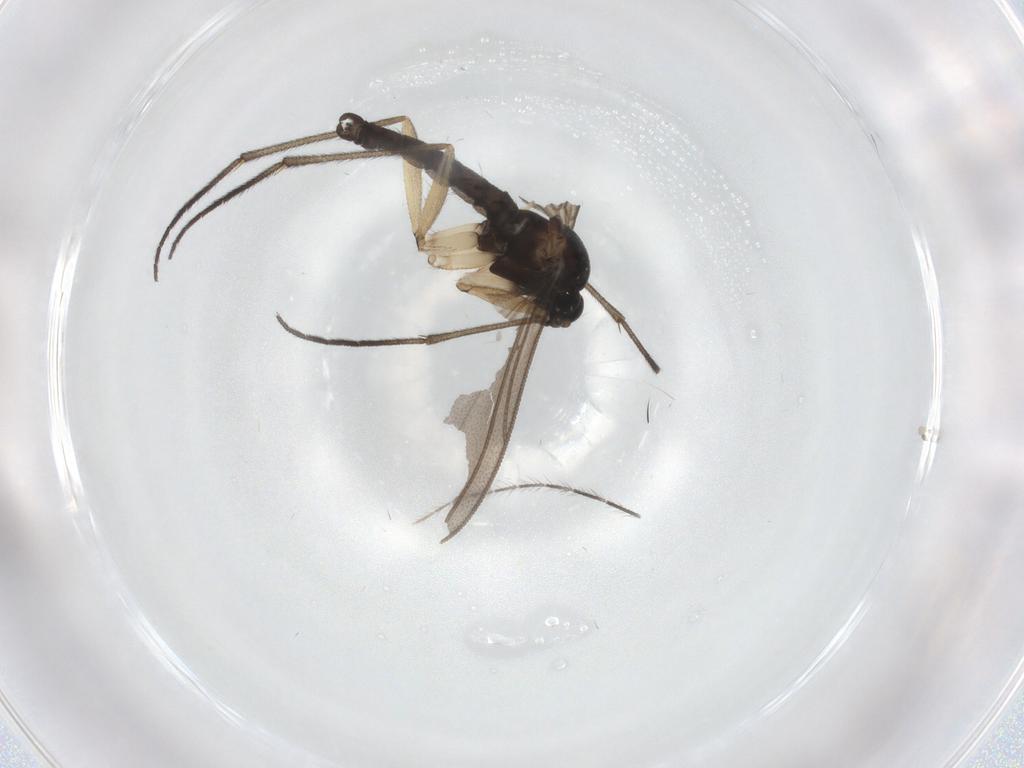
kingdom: Animalia
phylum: Arthropoda
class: Insecta
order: Diptera
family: Sciaridae
